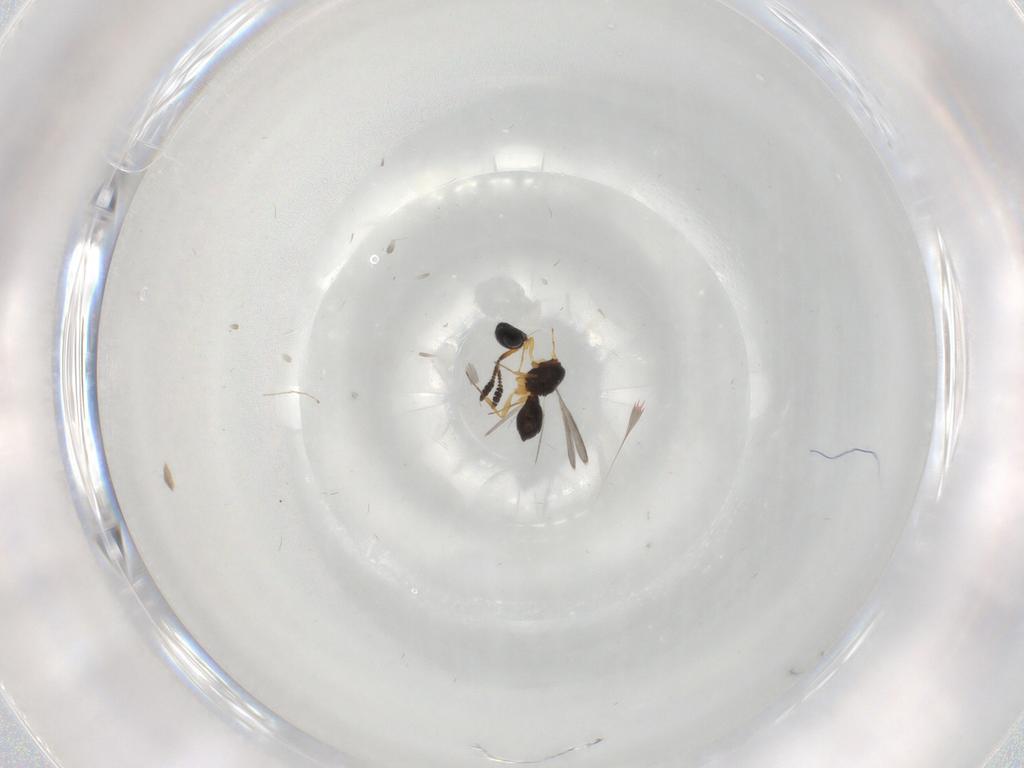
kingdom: Animalia
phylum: Arthropoda
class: Insecta
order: Hymenoptera
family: Scelionidae
